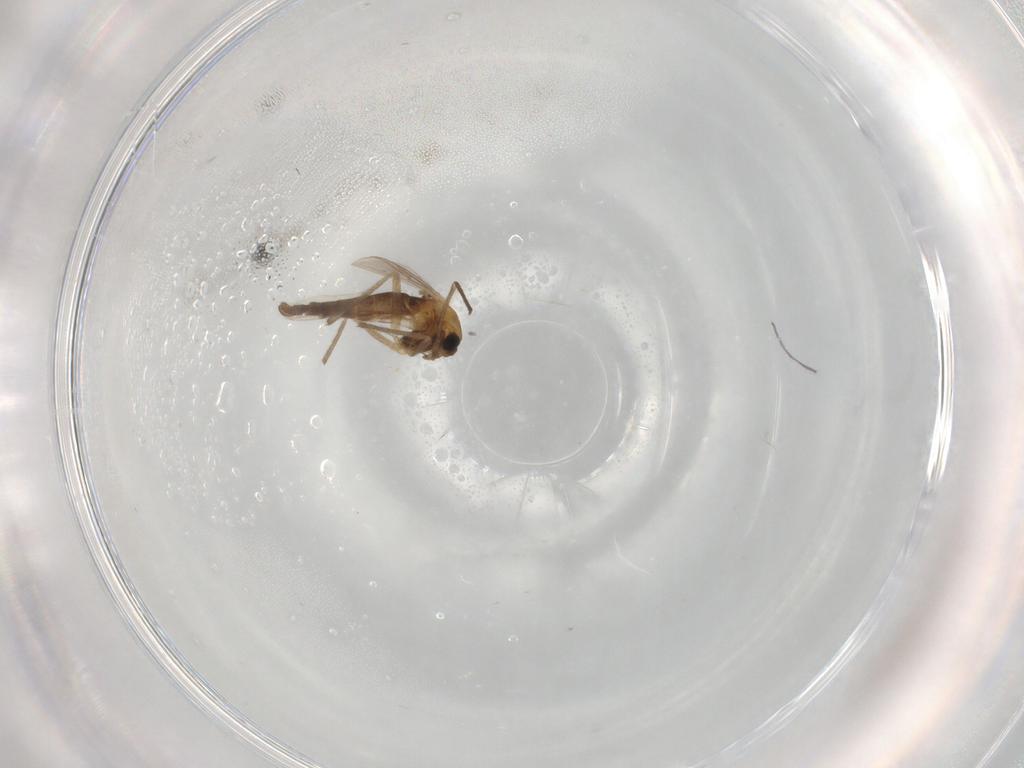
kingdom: Animalia
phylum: Arthropoda
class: Insecta
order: Diptera
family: Chironomidae
